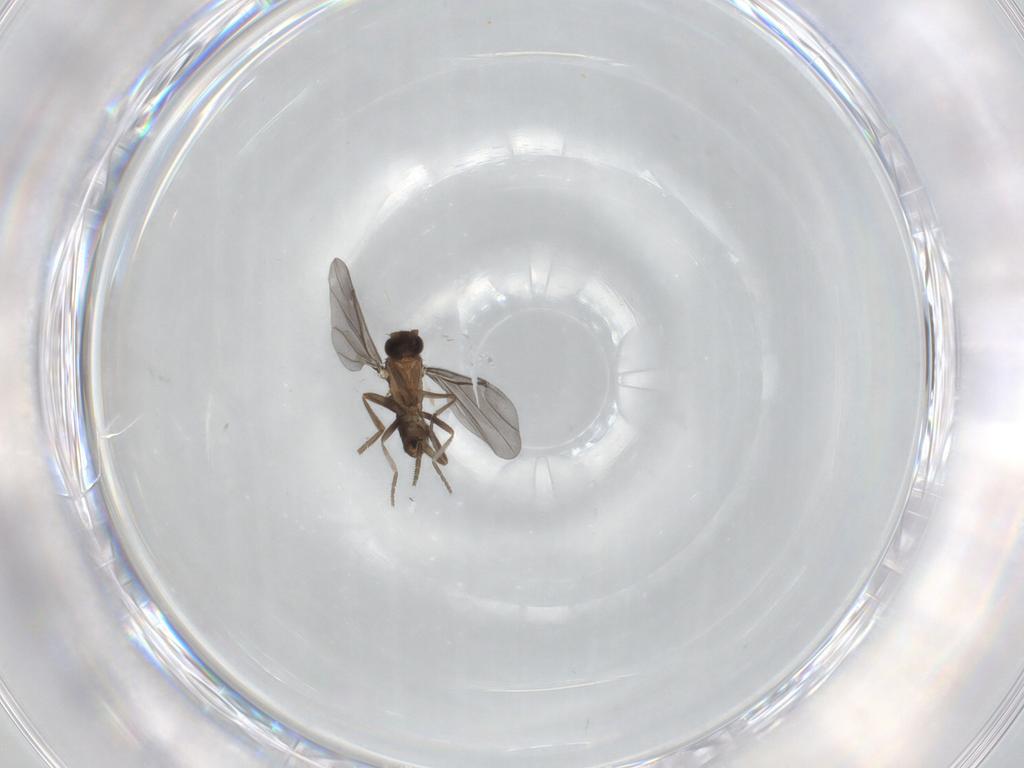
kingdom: Animalia
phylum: Arthropoda
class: Insecta
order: Diptera
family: Phoridae
